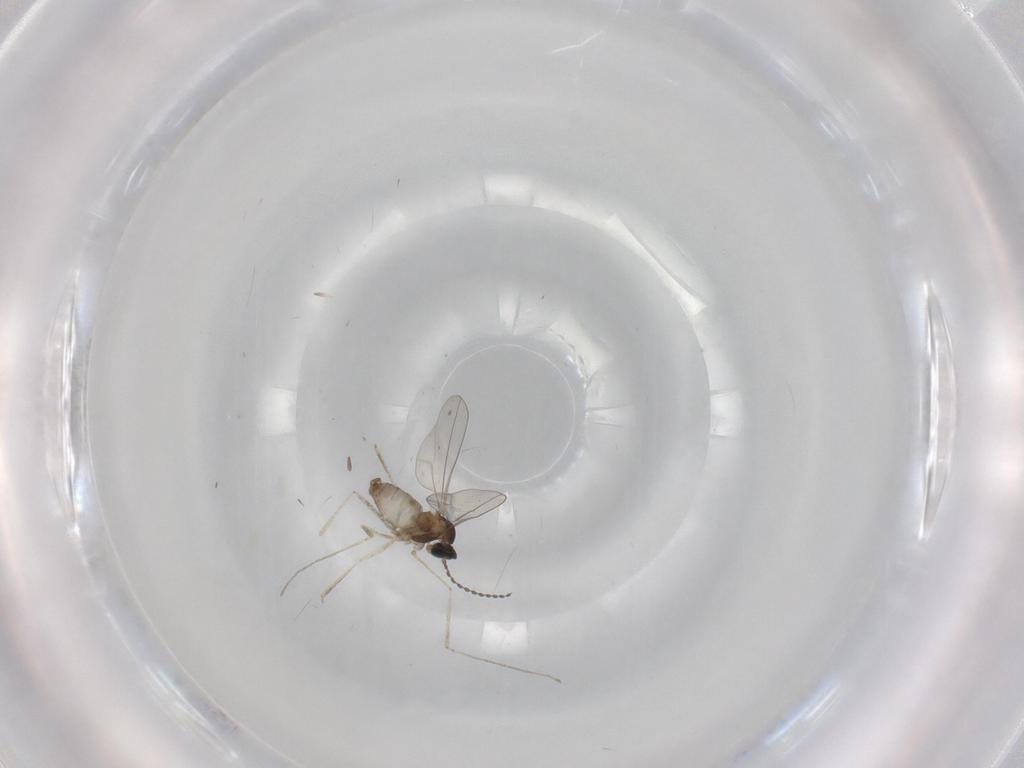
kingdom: Animalia
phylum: Arthropoda
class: Insecta
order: Diptera
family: Cecidomyiidae
